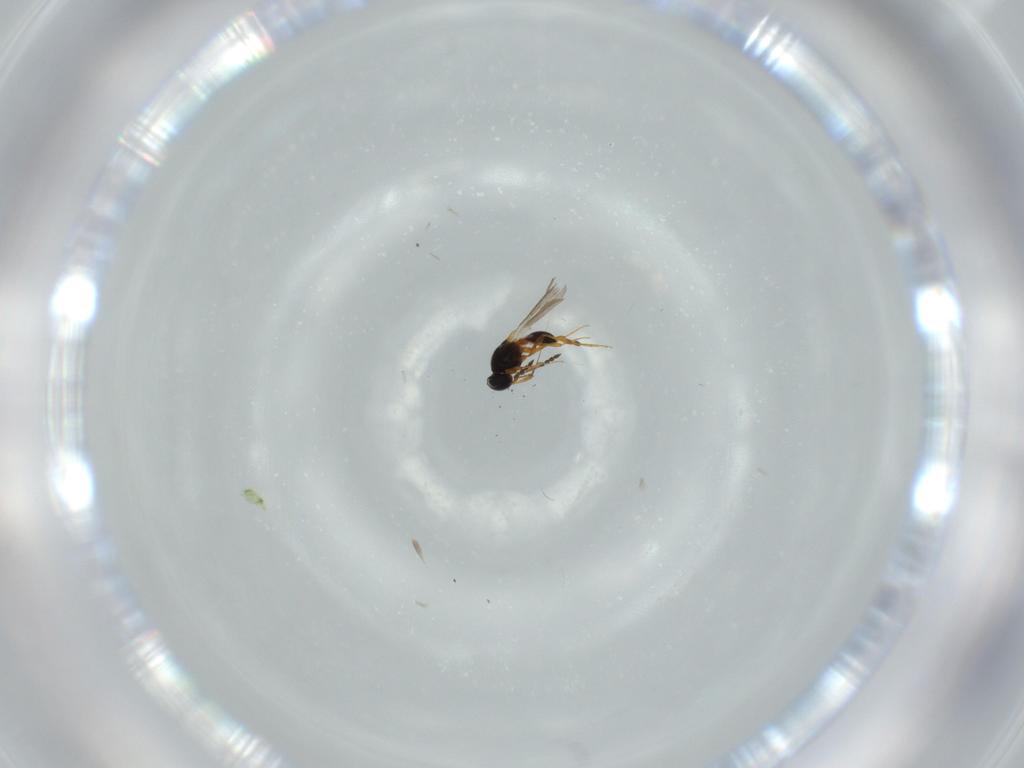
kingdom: Animalia
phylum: Arthropoda
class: Insecta
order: Hymenoptera
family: Platygastridae
